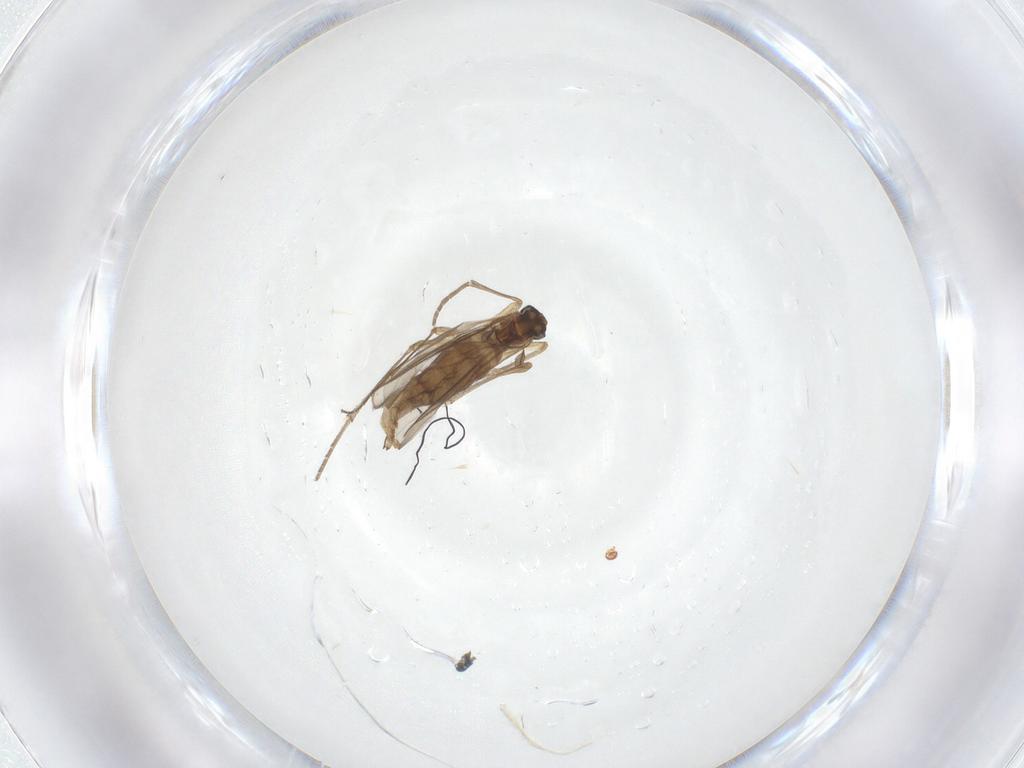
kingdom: Animalia
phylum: Arthropoda
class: Insecta
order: Diptera
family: Sciaridae
